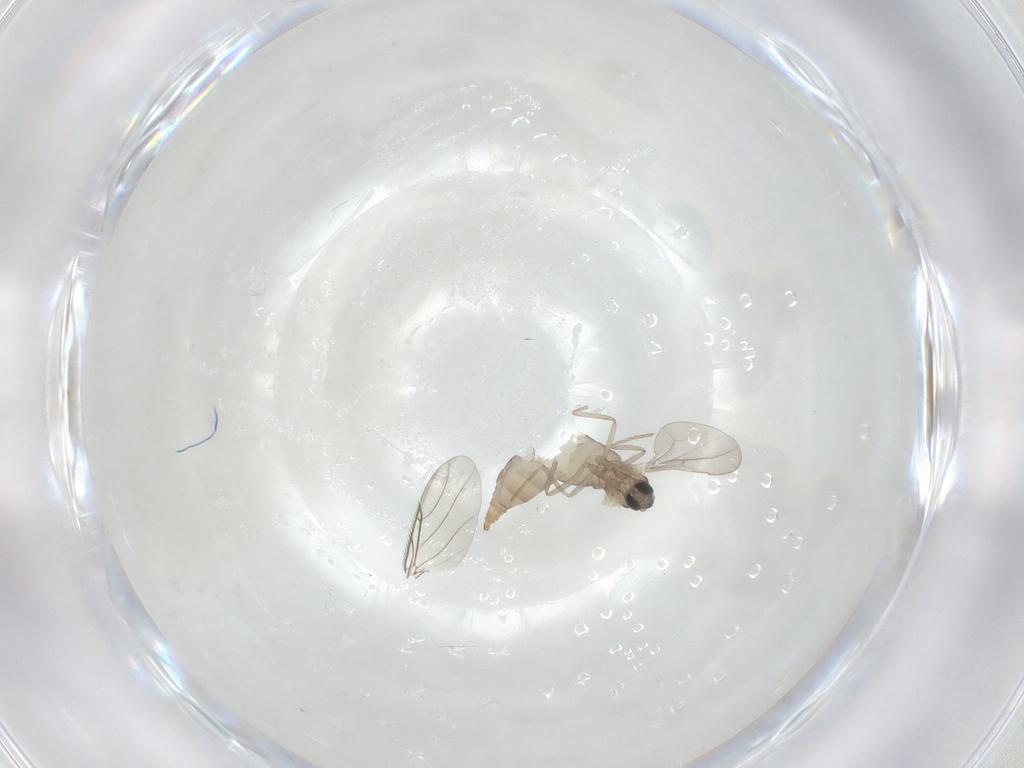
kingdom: Animalia
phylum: Arthropoda
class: Insecta
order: Diptera
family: Cecidomyiidae
